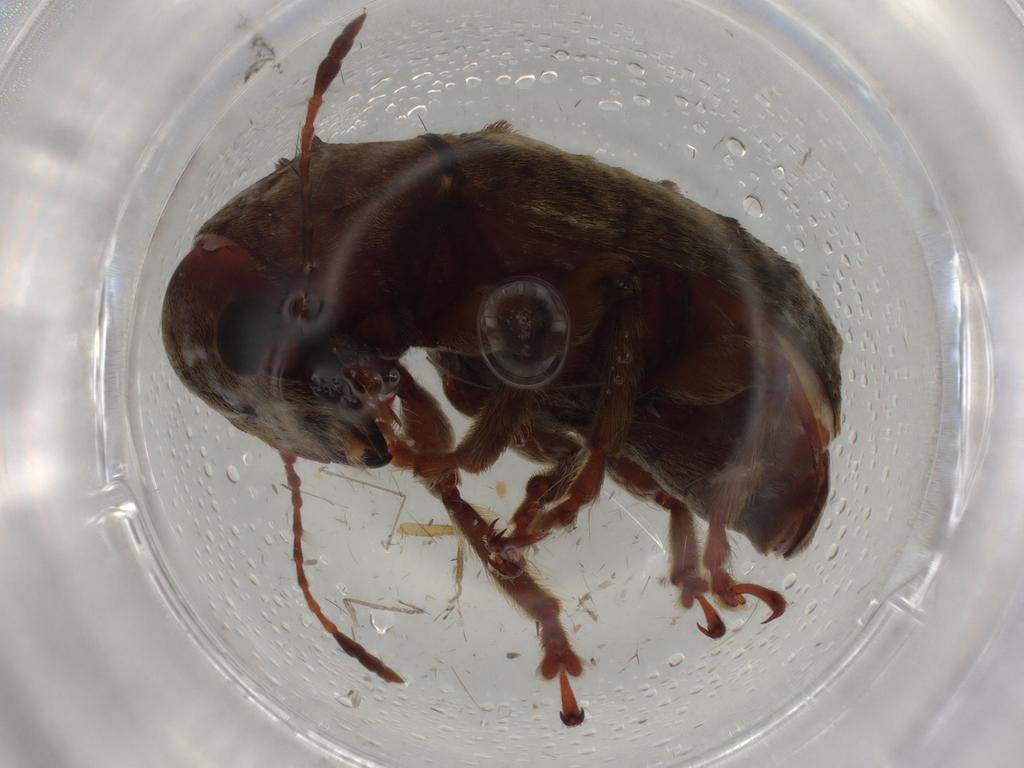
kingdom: Animalia
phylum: Arthropoda
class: Insecta
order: Coleoptera
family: Anthribidae
